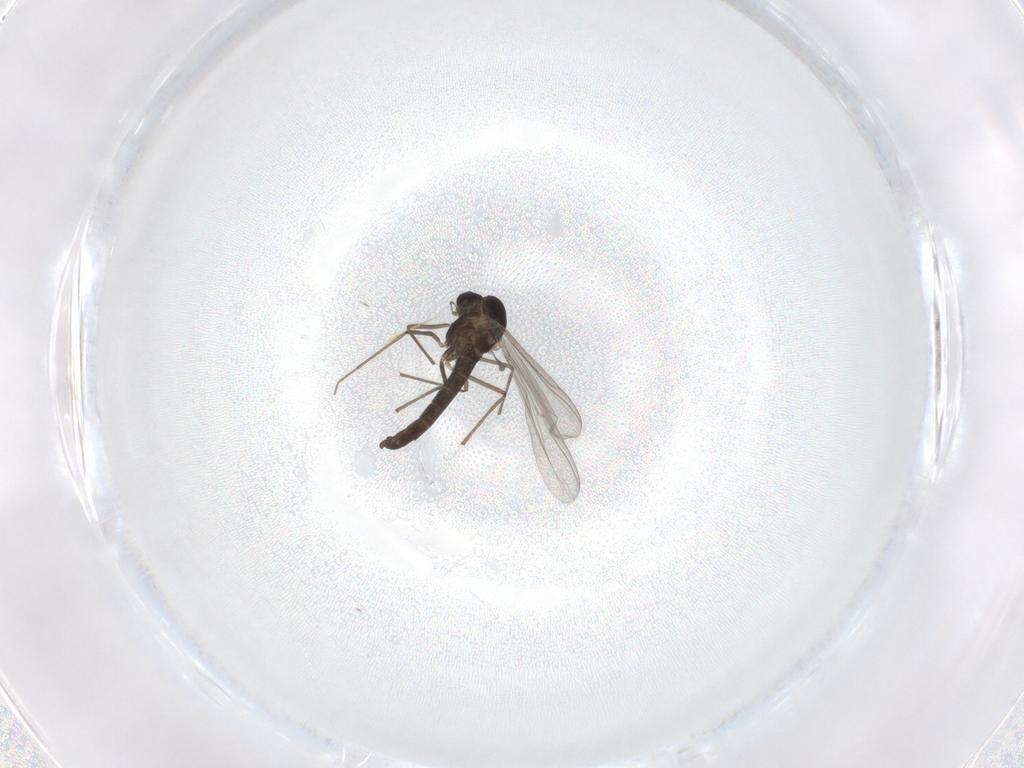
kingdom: Animalia
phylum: Arthropoda
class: Insecta
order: Diptera
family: Chironomidae
